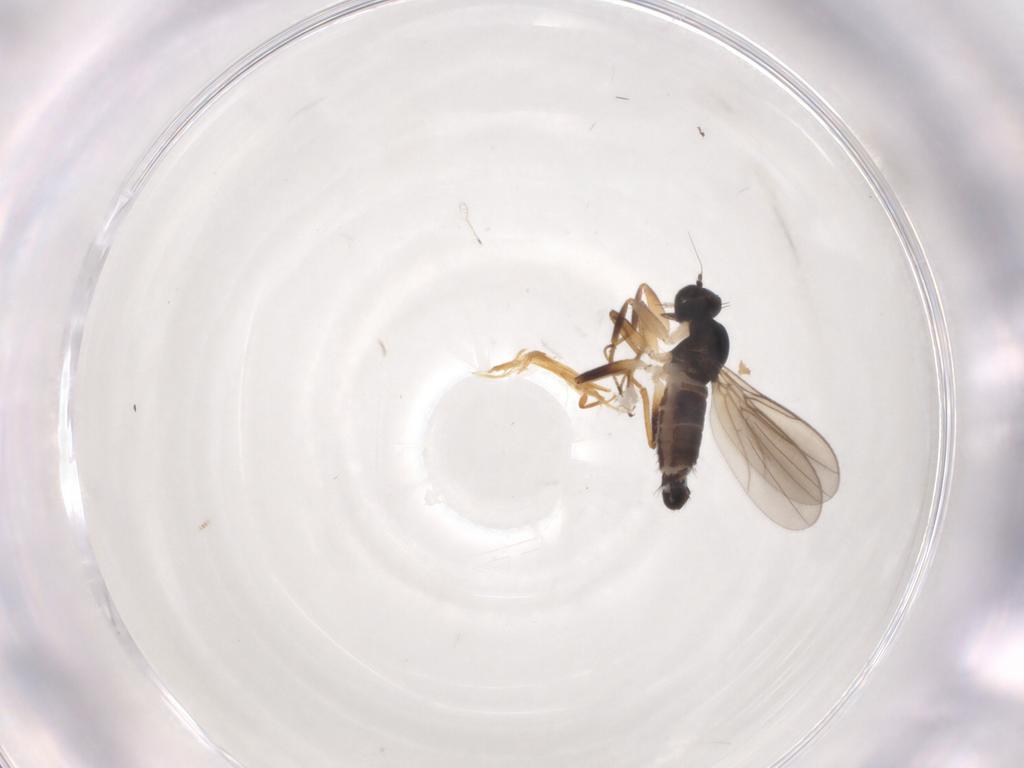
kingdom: Animalia
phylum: Arthropoda
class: Insecta
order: Diptera
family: Hybotidae
